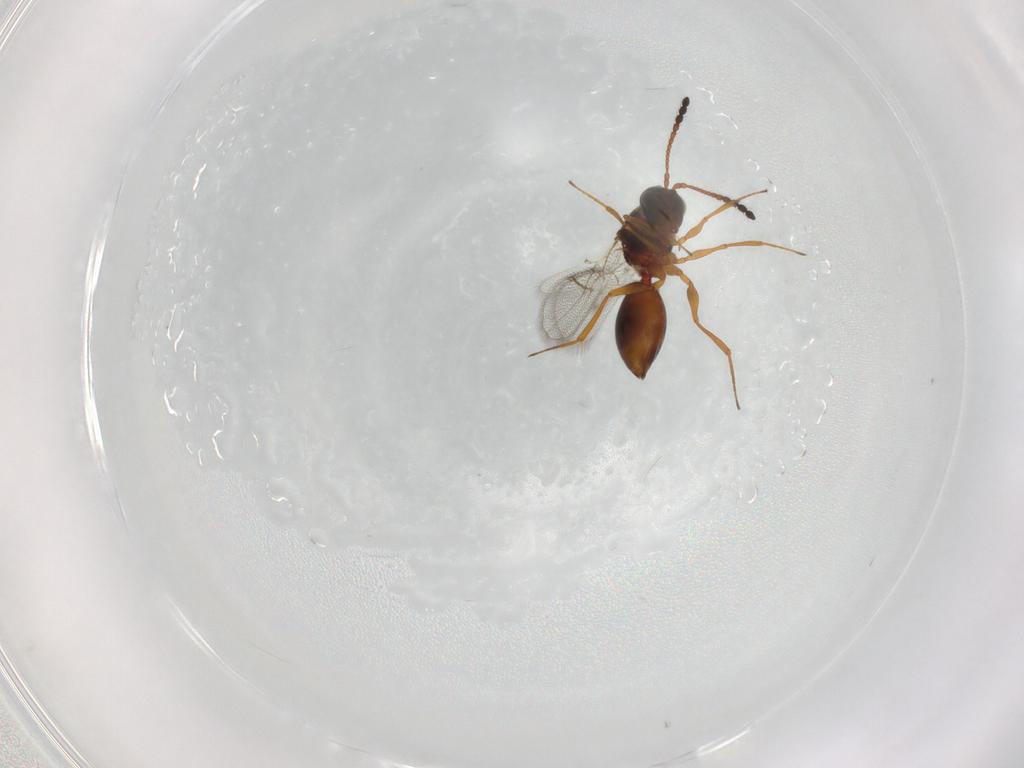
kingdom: Animalia
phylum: Arthropoda
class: Insecta
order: Hymenoptera
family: Figitidae
